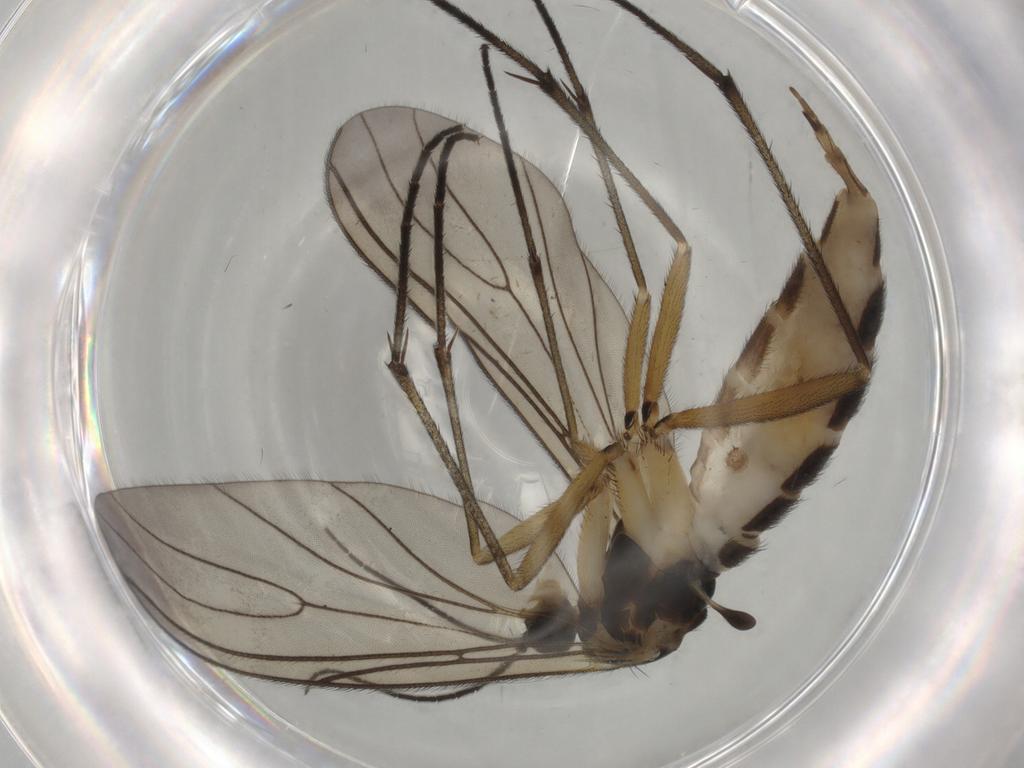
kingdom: Animalia
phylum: Arthropoda
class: Insecta
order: Diptera
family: Sciaridae
